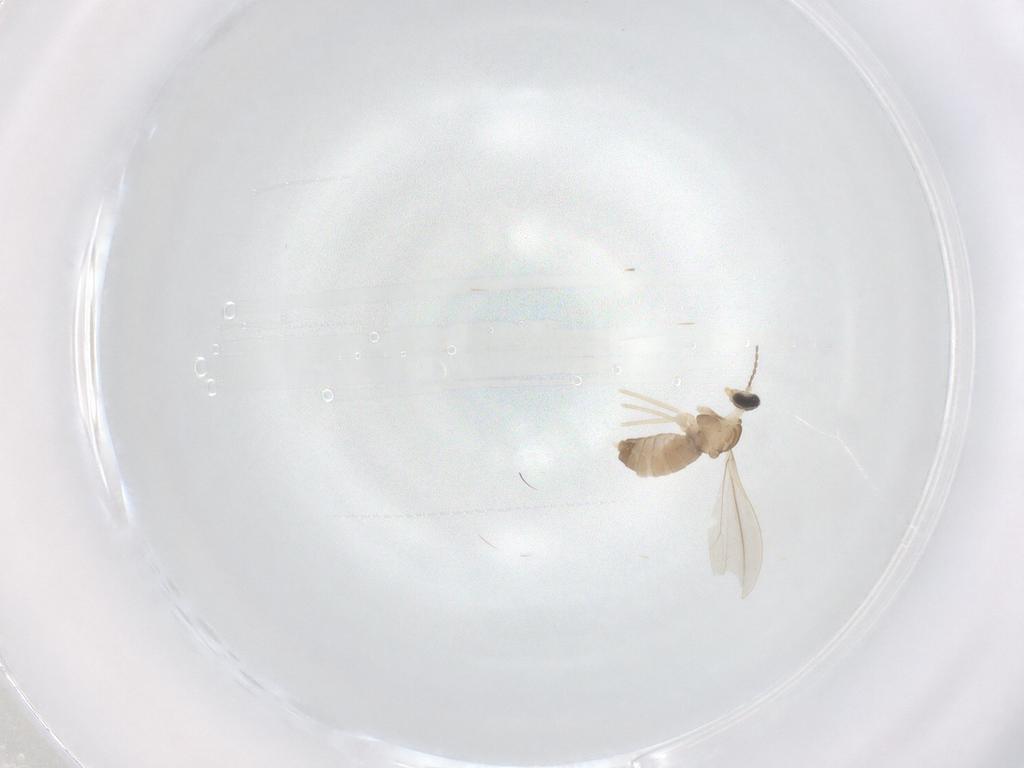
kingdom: Animalia
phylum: Arthropoda
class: Insecta
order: Diptera
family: Cecidomyiidae
